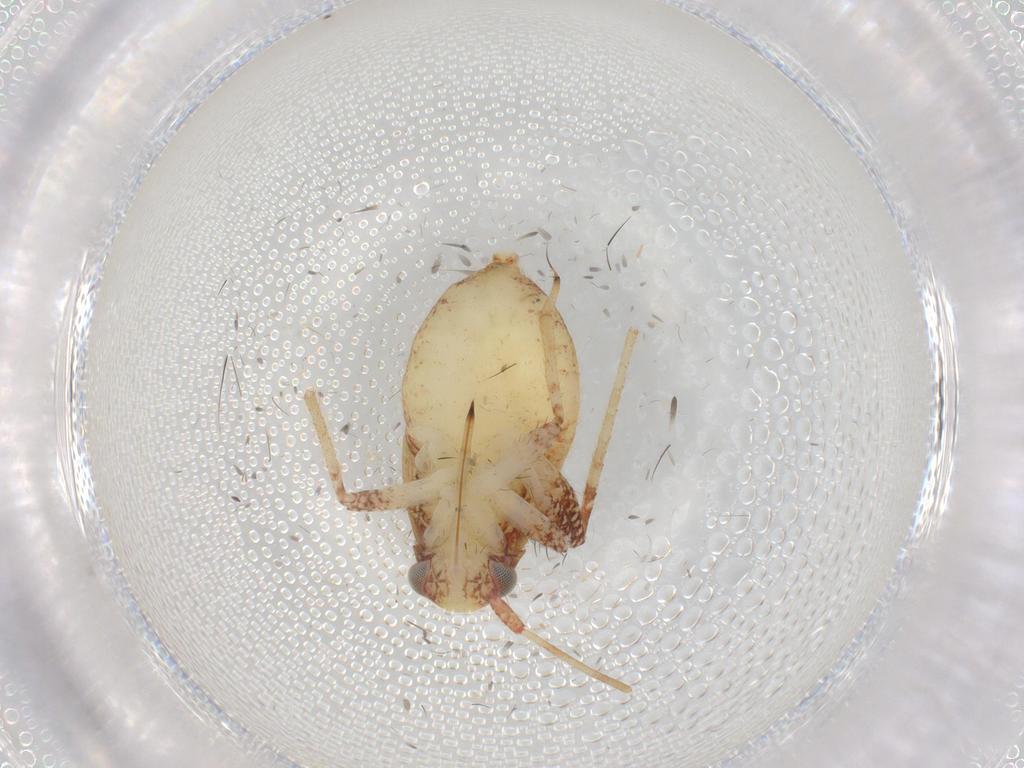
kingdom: Animalia
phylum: Arthropoda
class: Insecta
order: Hemiptera
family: Miridae
